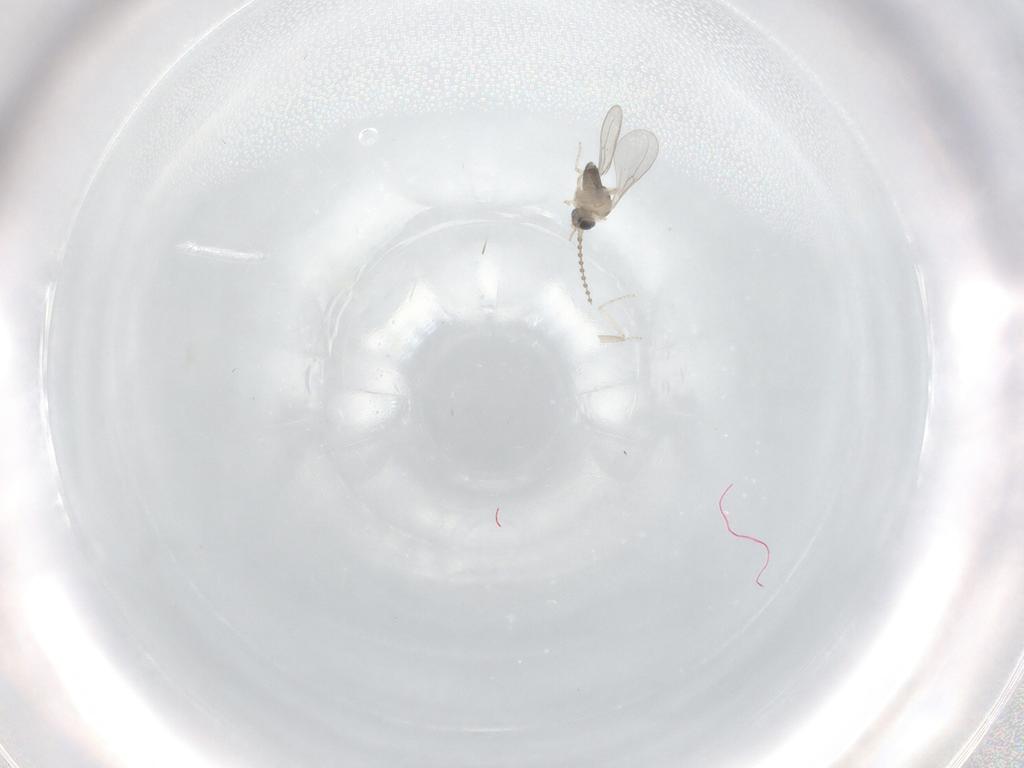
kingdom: Animalia
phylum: Arthropoda
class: Insecta
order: Diptera
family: Cecidomyiidae
